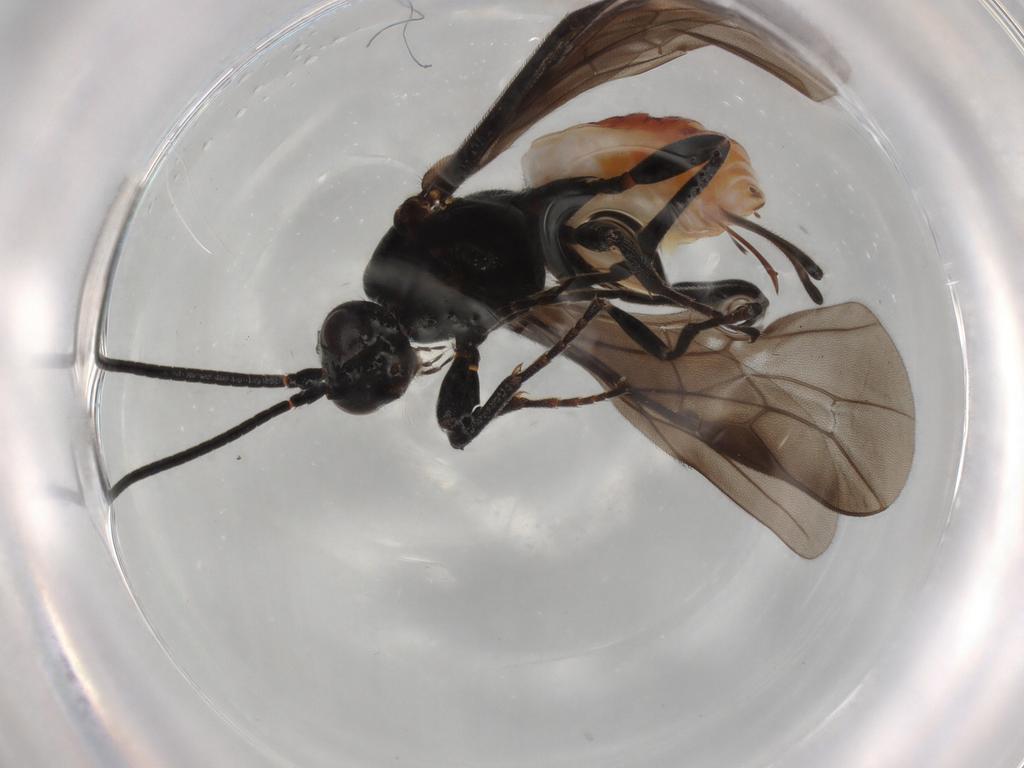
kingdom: Animalia
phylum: Arthropoda
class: Insecta
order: Hymenoptera
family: Braconidae
